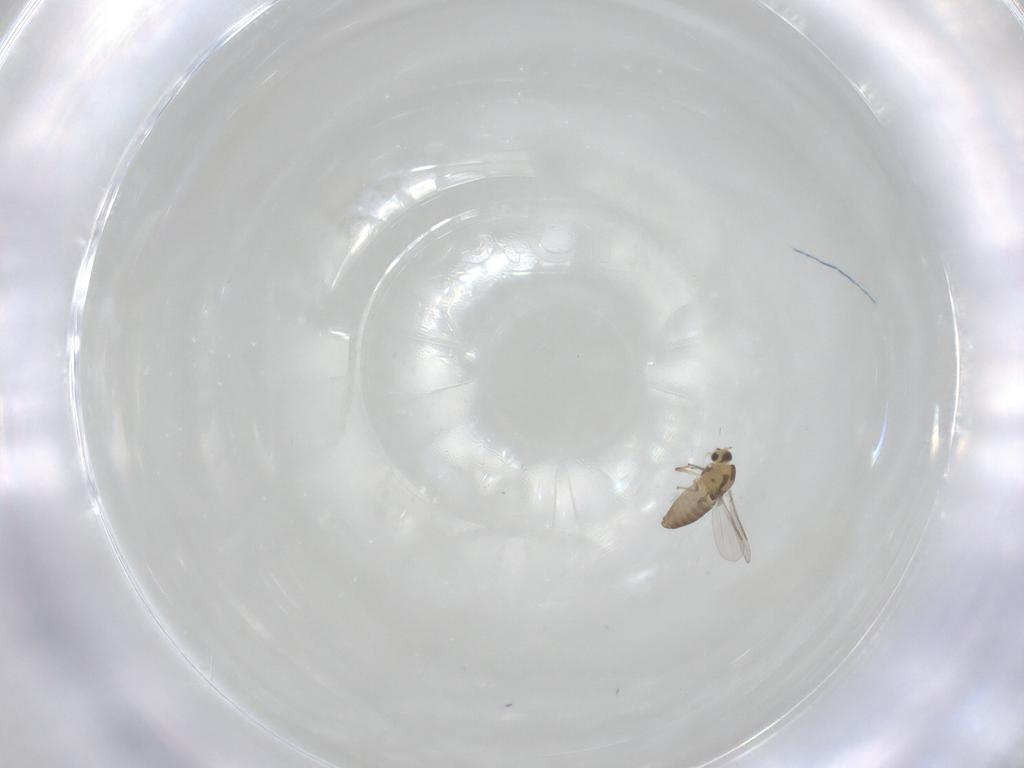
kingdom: Animalia
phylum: Arthropoda
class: Insecta
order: Diptera
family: Chironomidae
